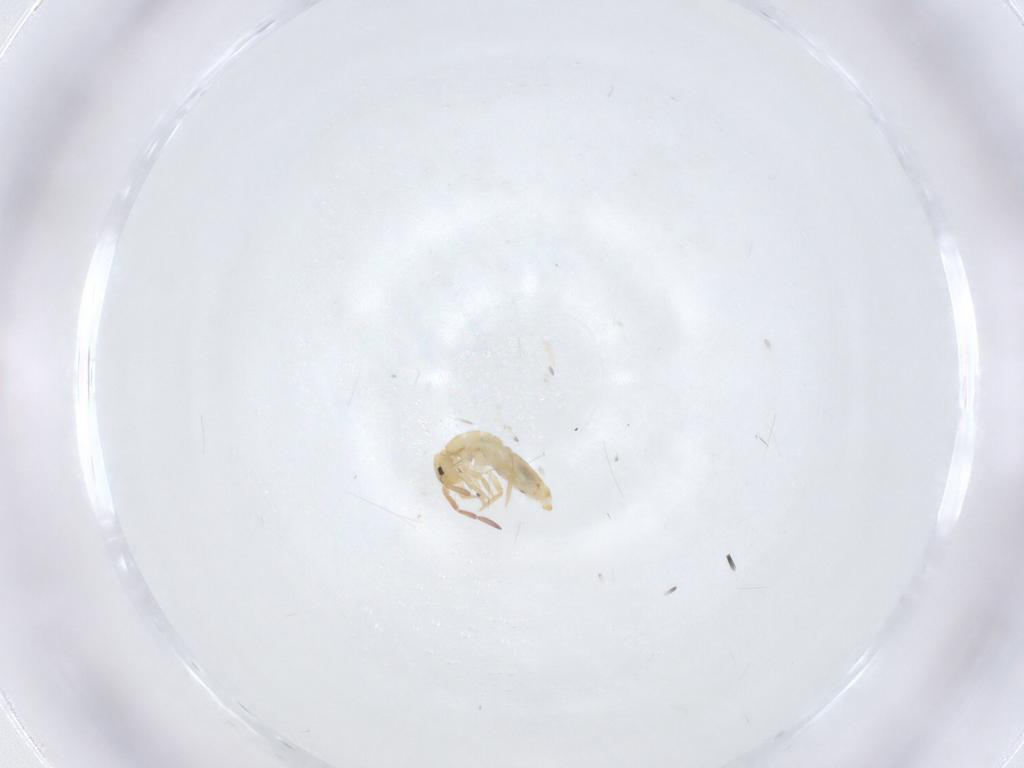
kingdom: Animalia
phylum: Arthropoda
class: Collembola
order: Entomobryomorpha
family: Entomobryidae
